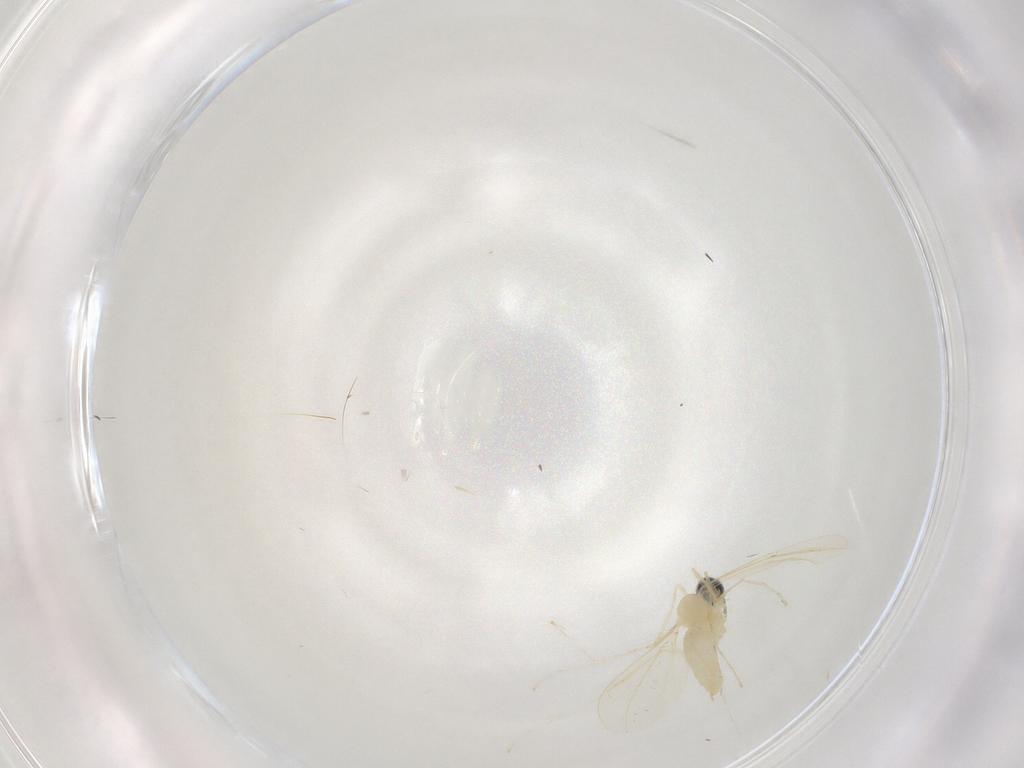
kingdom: Animalia
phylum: Arthropoda
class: Insecta
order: Diptera
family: Cecidomyiidae
